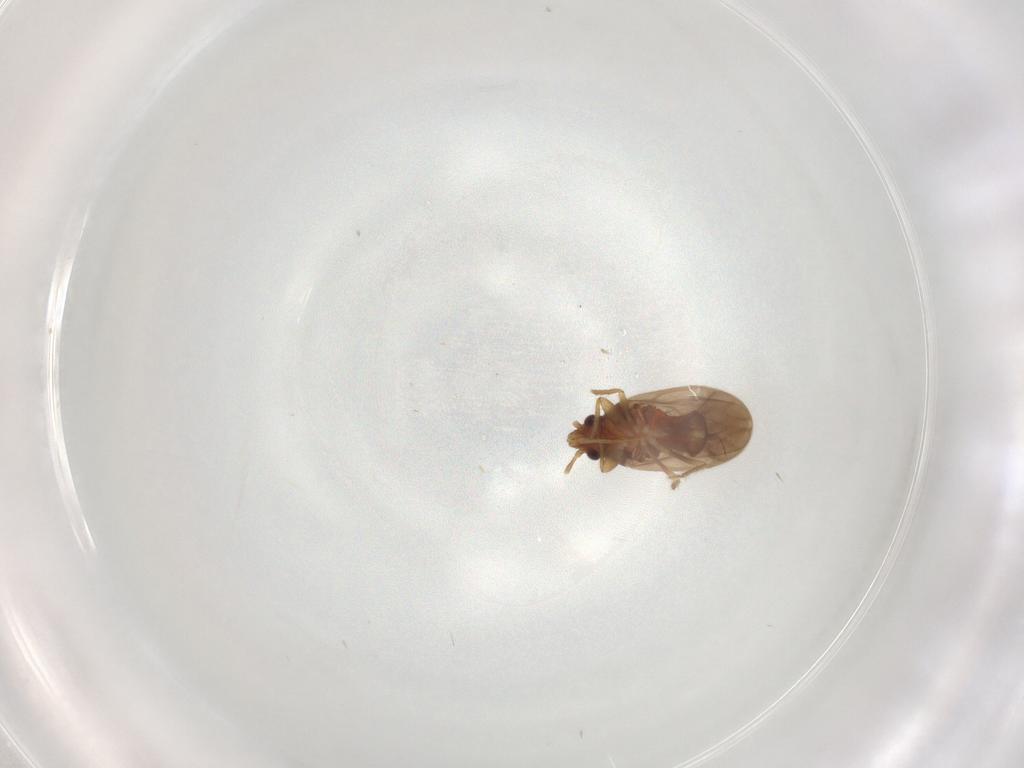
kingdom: Animalia
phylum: Arthropoda
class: Insecta
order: Hemiptera
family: Ceratocombidae
